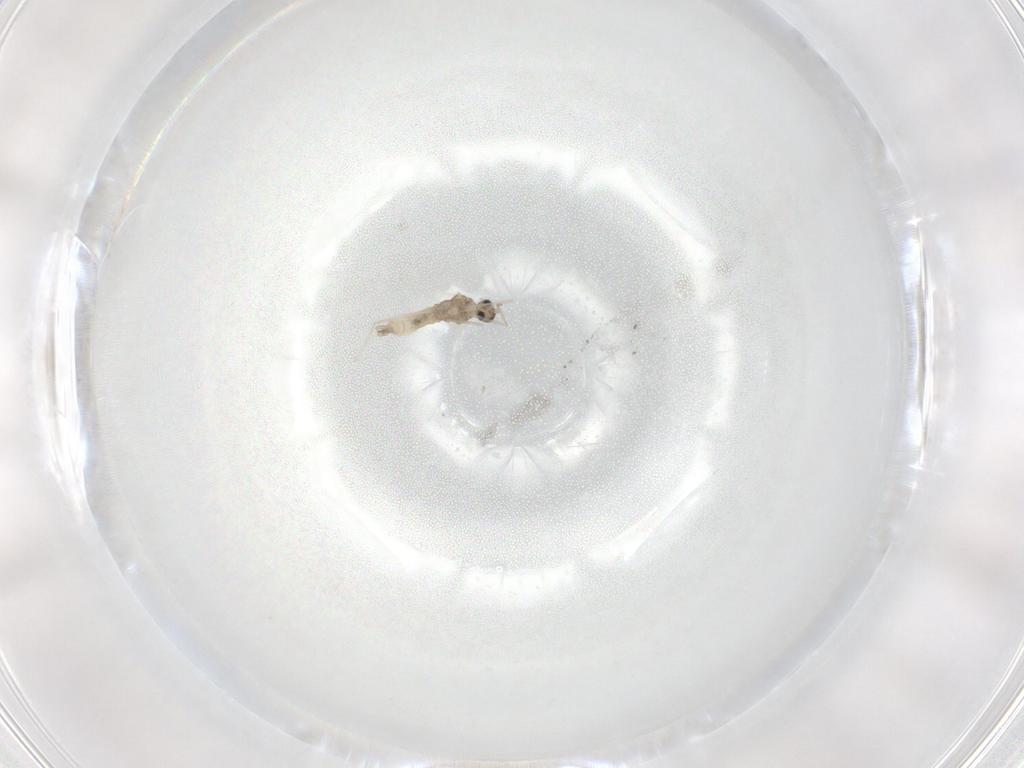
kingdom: Animalia
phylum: Arthropoda
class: Insecta
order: Diptera
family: Cecidomyiidae
